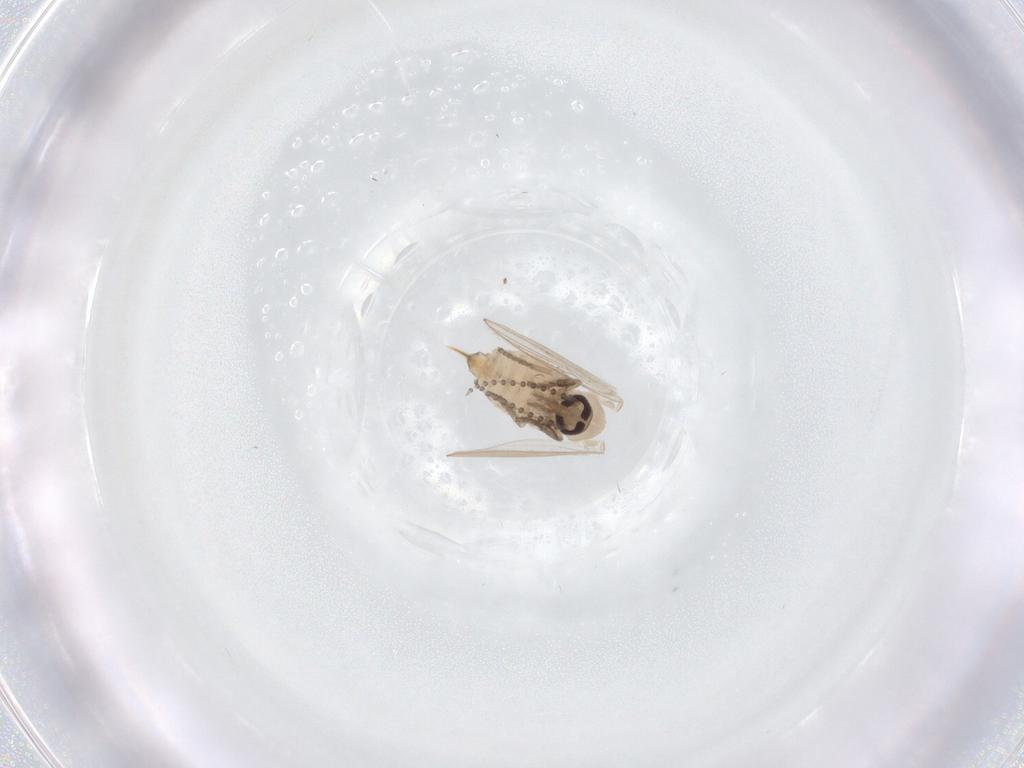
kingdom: Animalia
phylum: Arthropoda
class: Insecta
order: Diptera
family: Psychodidae
